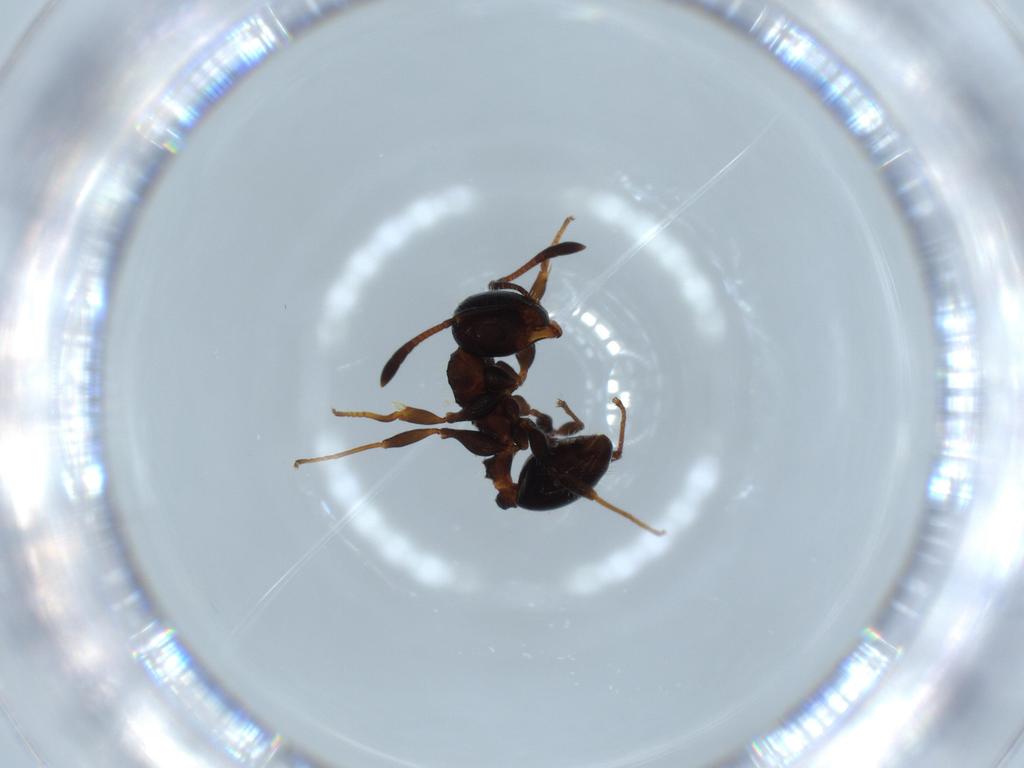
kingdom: Animalia
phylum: Arthropoda
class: Insecta
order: Hymenoptera
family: Formicidae
